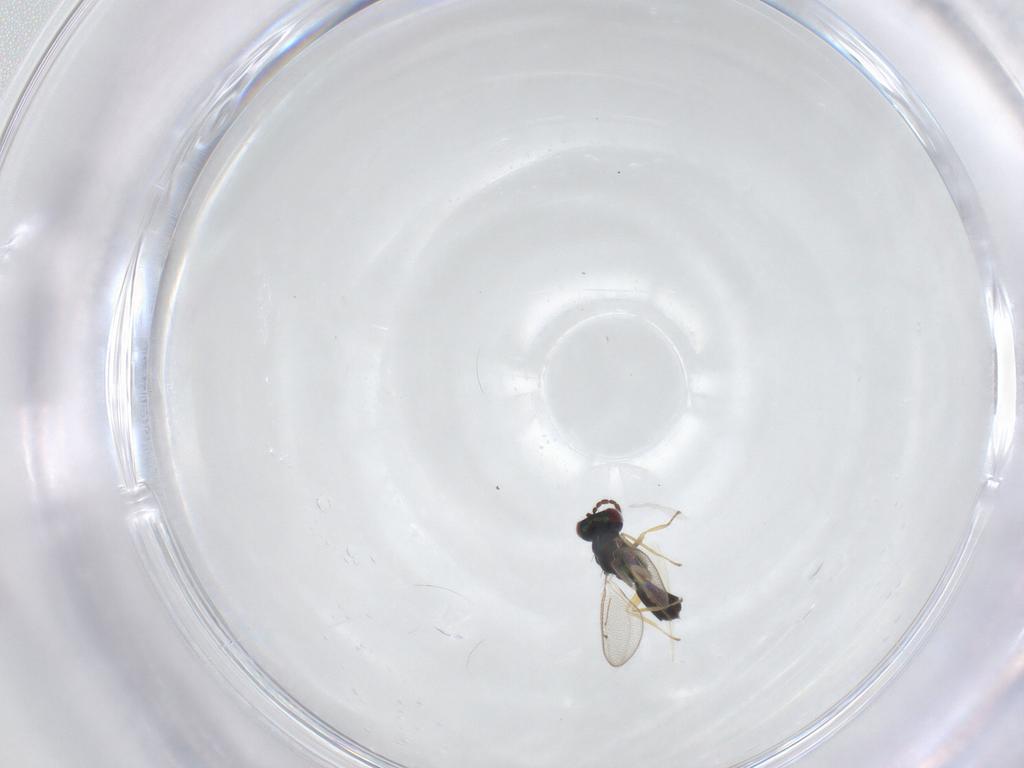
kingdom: Animalia
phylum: Arthropoda
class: Insecta
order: Hymenoptera
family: Eulophidae
